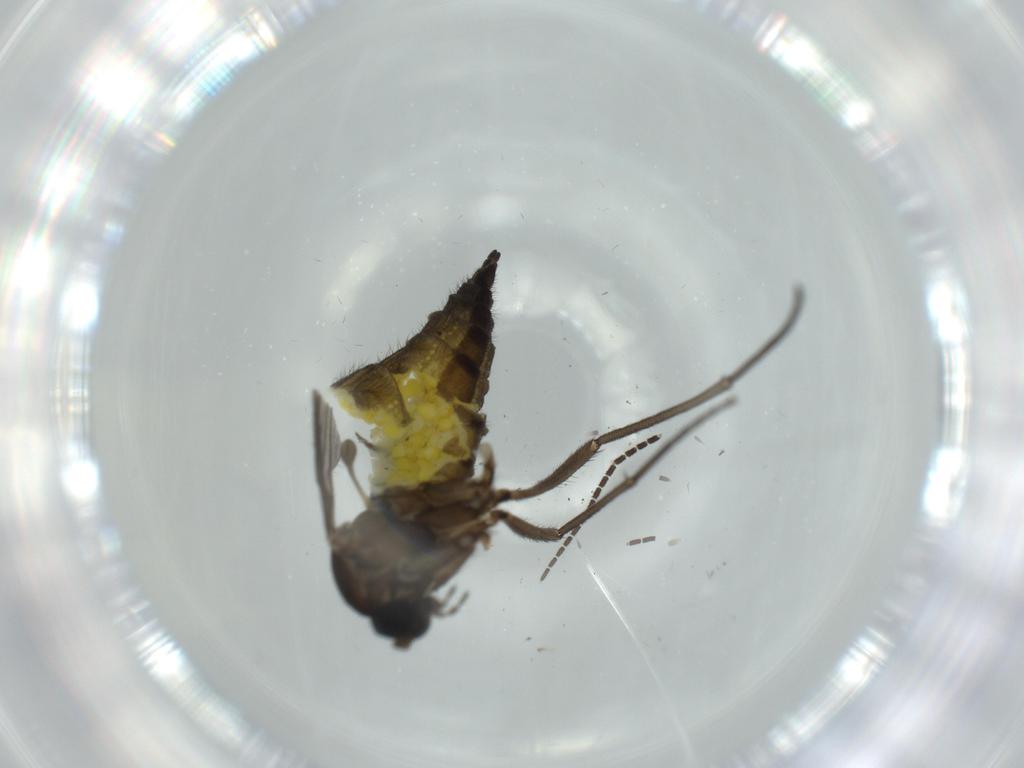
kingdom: Animalia
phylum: Arthropoda
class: Insecta
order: Diptera
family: Sciaridae
